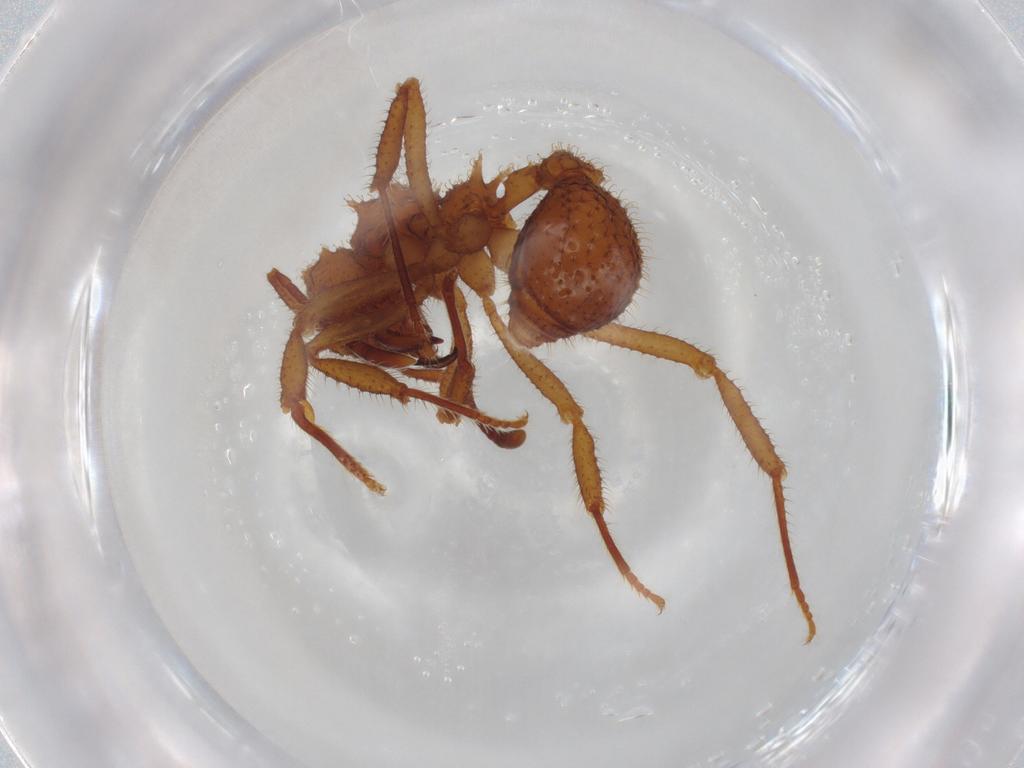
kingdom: Animalia
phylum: Arthropoda
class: Insecta
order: Hymenoptera
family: Formicidae
